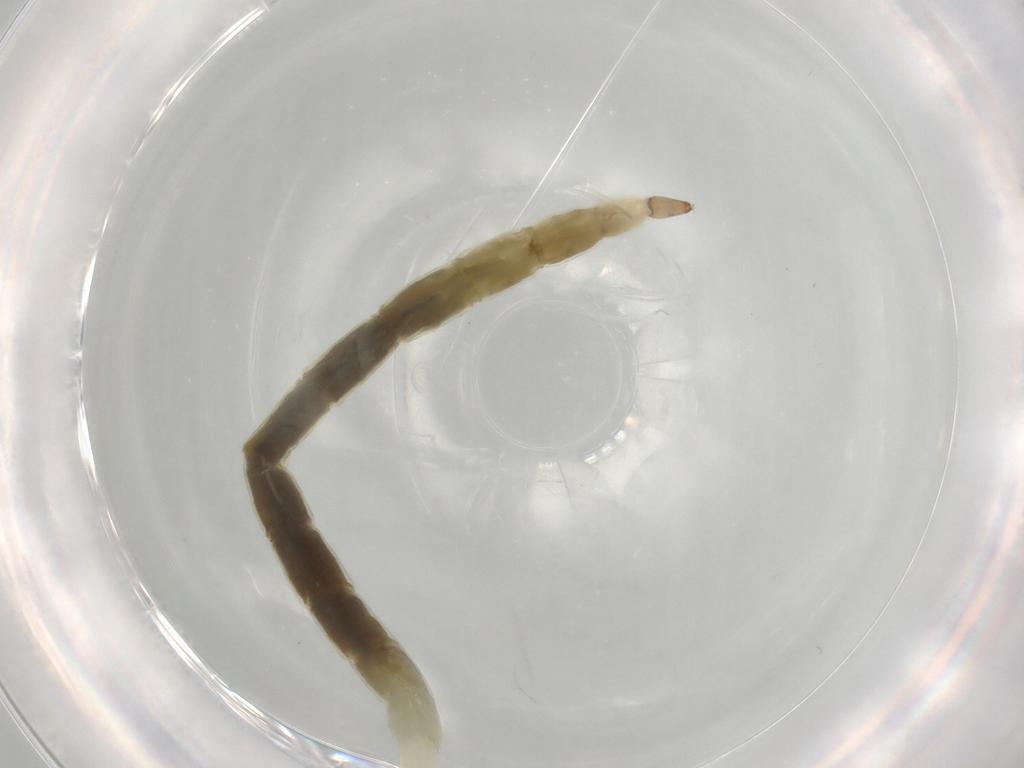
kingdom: Animalia
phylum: Arthropoda
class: Insecta
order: Diptera
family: Ceratopogonidae
